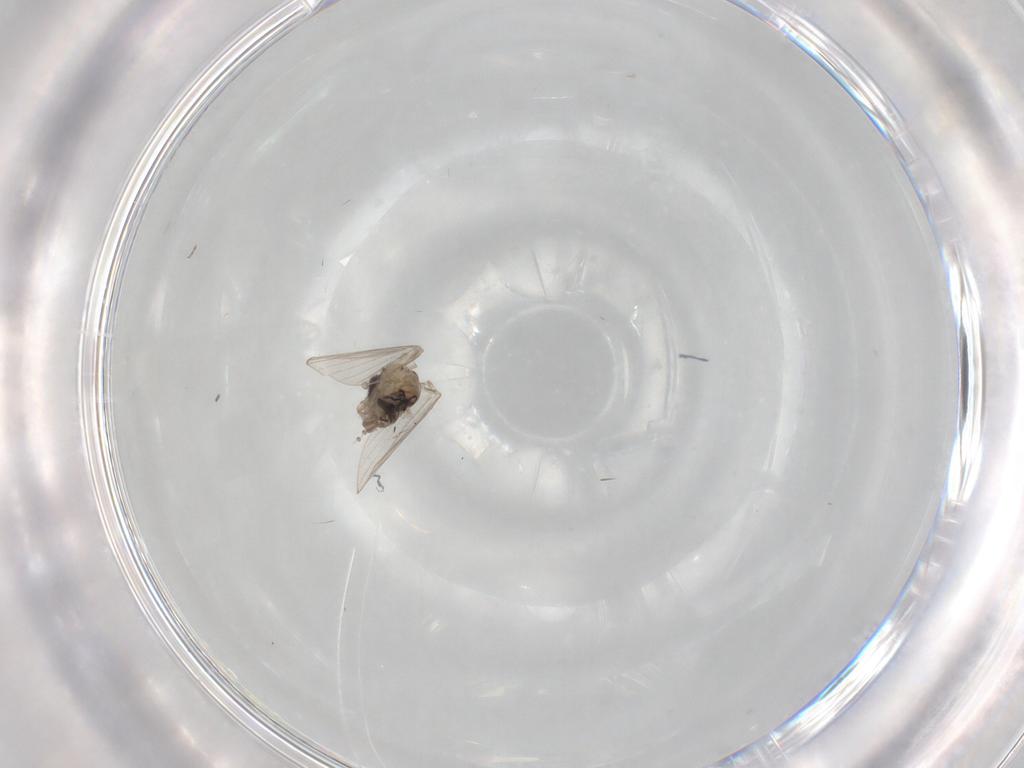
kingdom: Animalia
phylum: Arthropoda
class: Insecta
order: Diptera
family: Psychodidae
